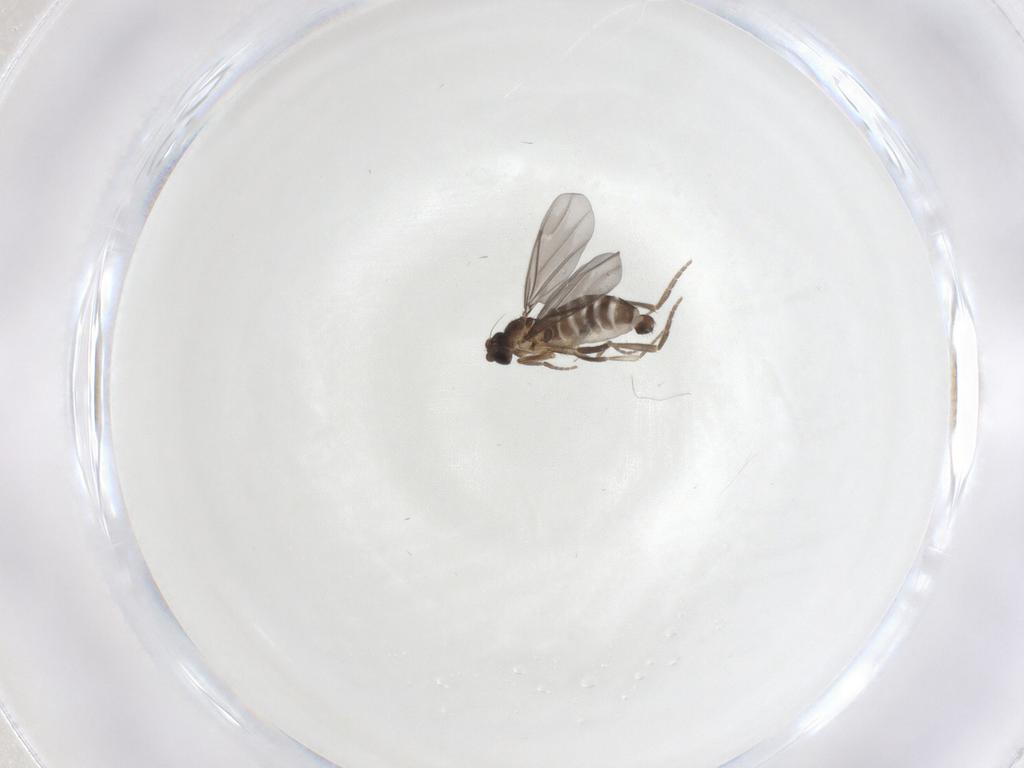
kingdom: Animalia
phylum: Arthropoda
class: Insecta
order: Diptera
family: Phoridae
